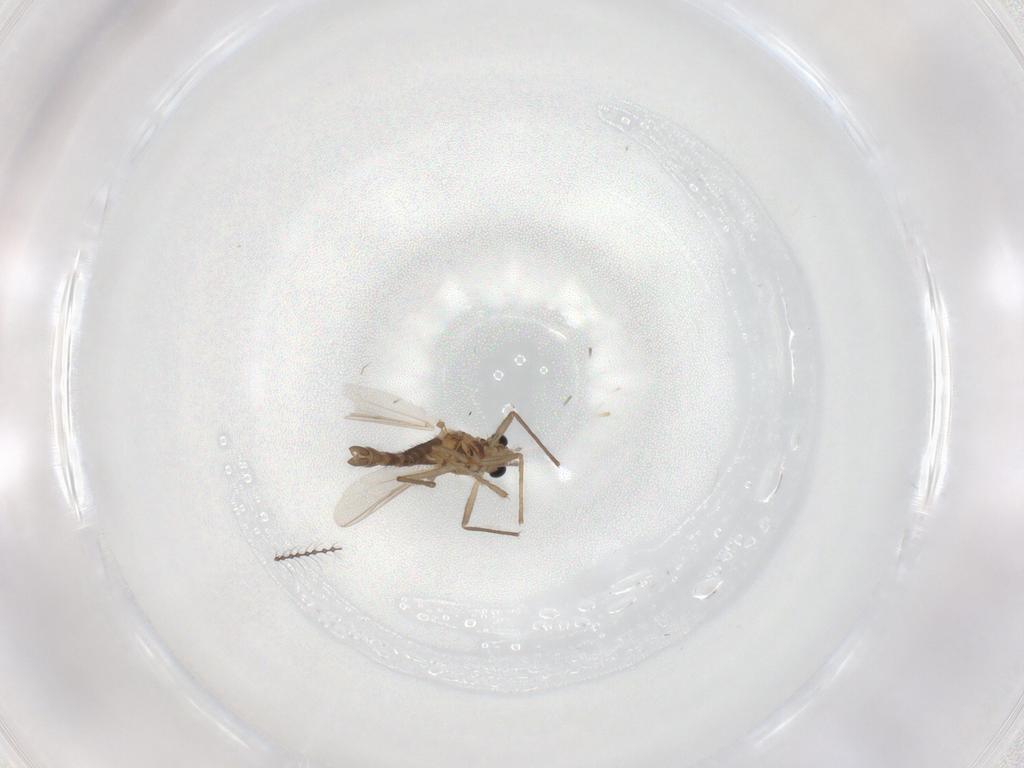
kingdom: Animalia
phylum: Arthropoda
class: Insecta
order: Diptera
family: Chironomidae
